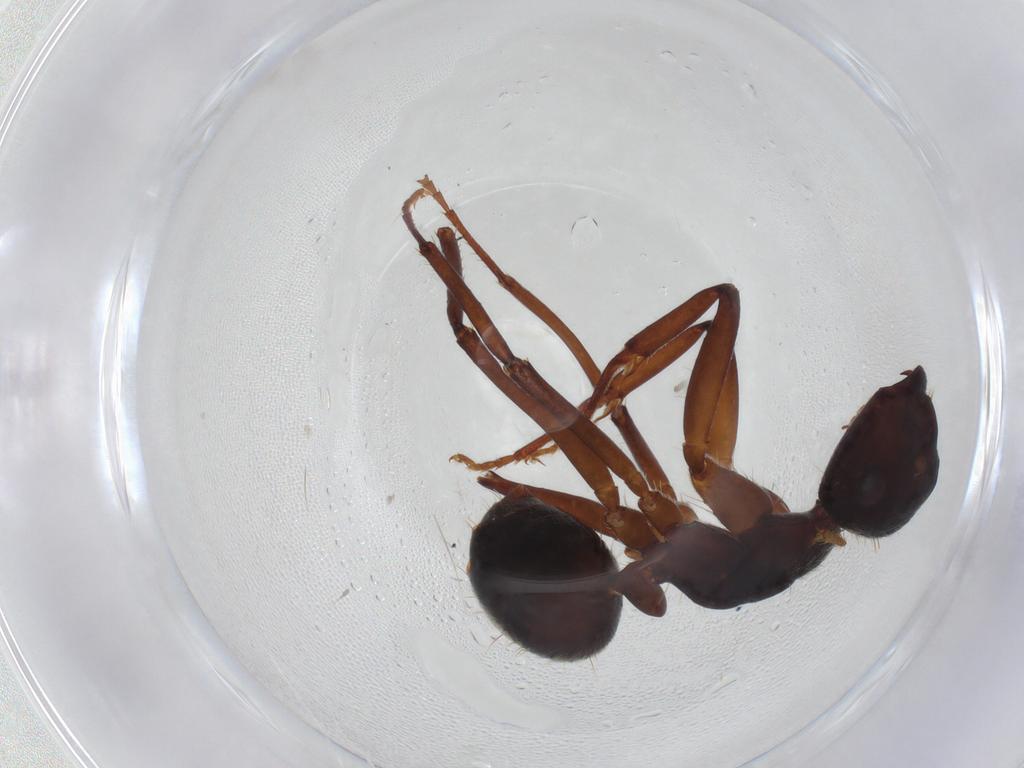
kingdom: Animalia
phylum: Arthropoda
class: Insecta
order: Hymenoptera
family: Formicidae
